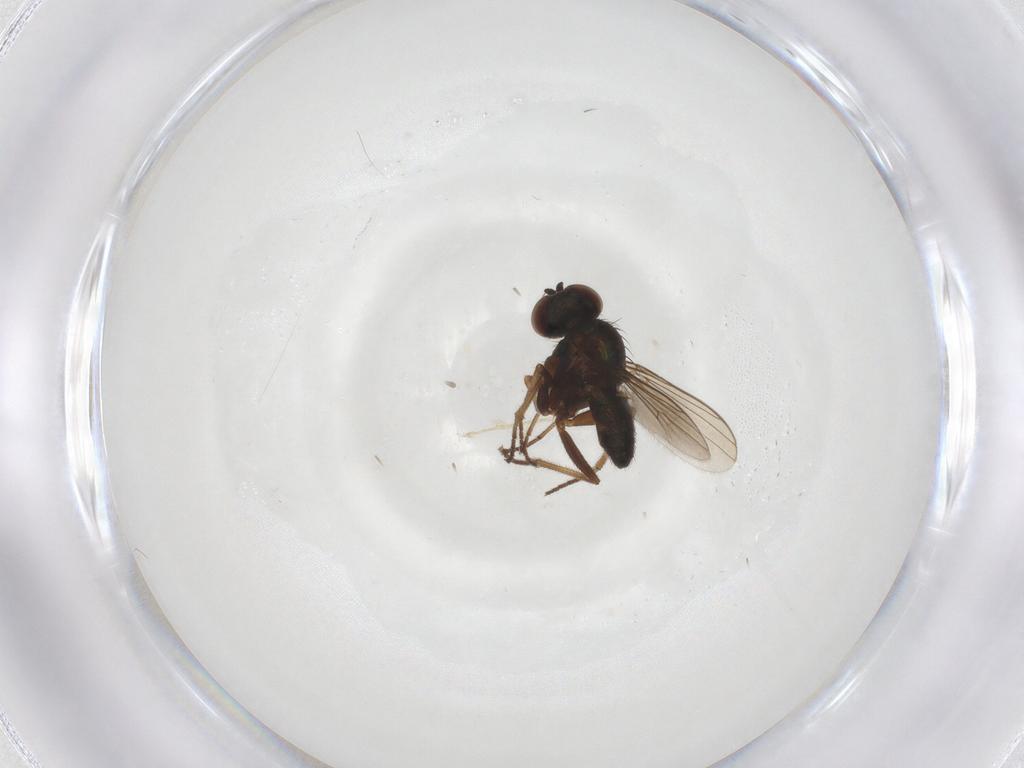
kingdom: Animalia
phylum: Arthropoda
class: Insecta
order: Diptera
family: Dolichopodidae
